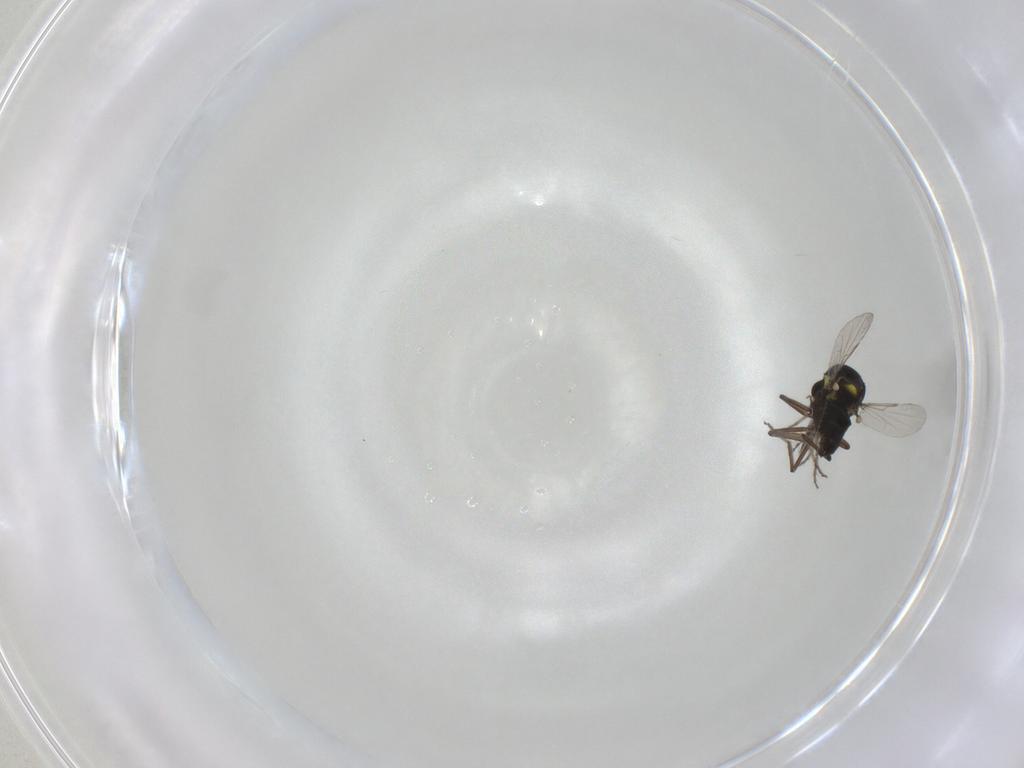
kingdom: Animalia
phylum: Arthropoda
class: Insecta
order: Diptera
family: Ceratopogonidae
